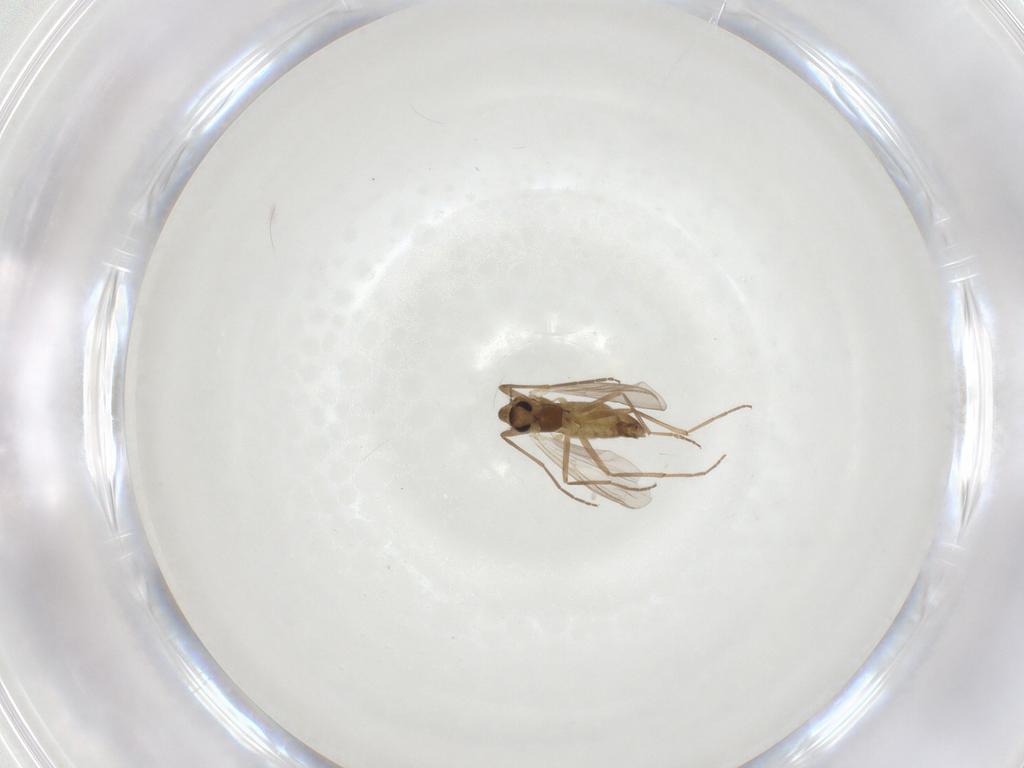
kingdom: Animalia
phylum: Arthropoda
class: Insecta
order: Diptera
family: Chironomidae
